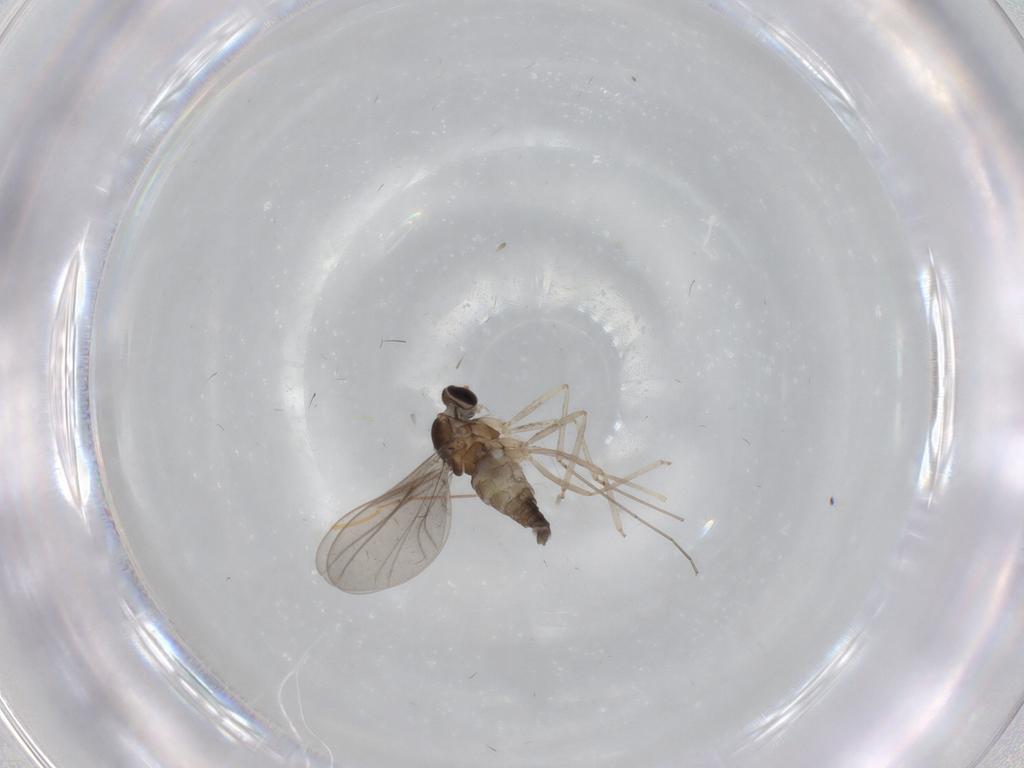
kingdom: Animalia
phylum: Arthropoda
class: Insecta
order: Diptera
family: Cecidomyiidae
